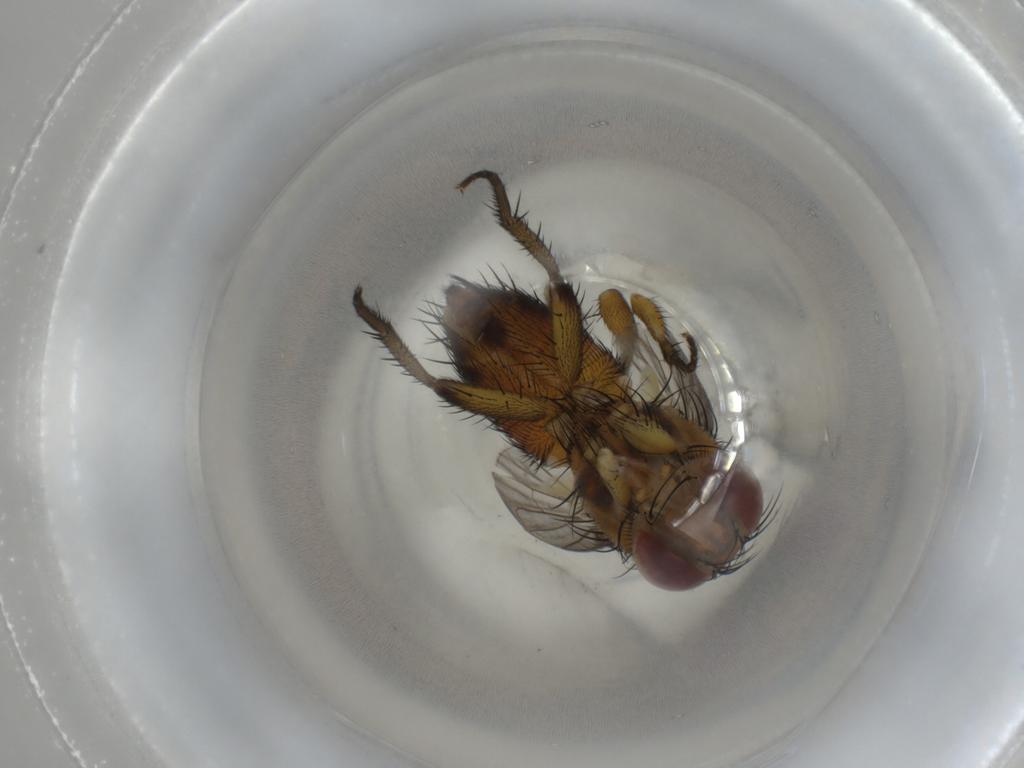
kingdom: Animalia
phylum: Arthropoda
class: Insecta
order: Diptera
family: Tachinidae
